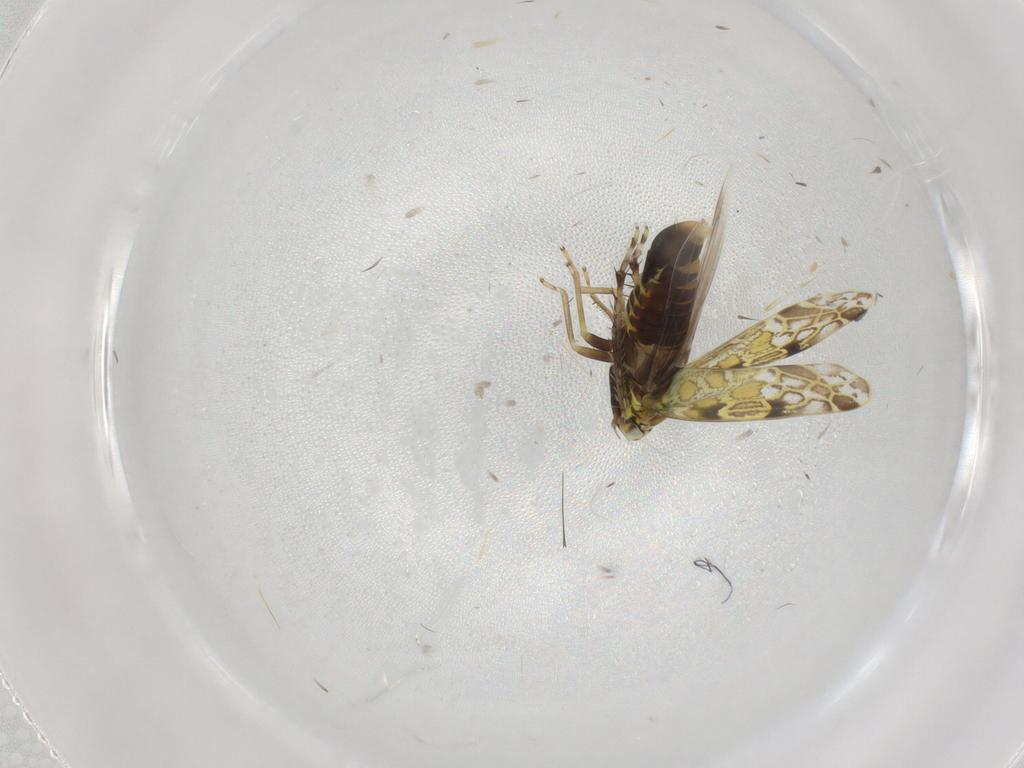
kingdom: Animalia
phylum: Arthropoda
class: Insecta
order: Hemiptera
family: Cicadellidae
